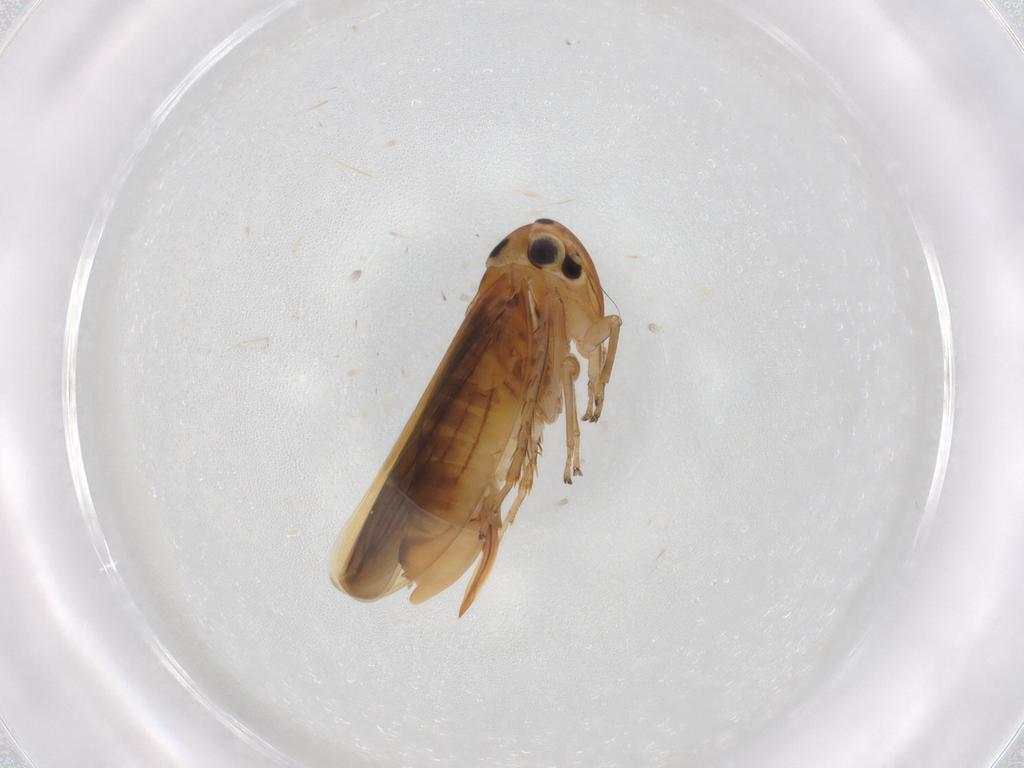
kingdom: Animalia
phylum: Arthropoda
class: Insecta
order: Hemiptera
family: Cicadellidae
